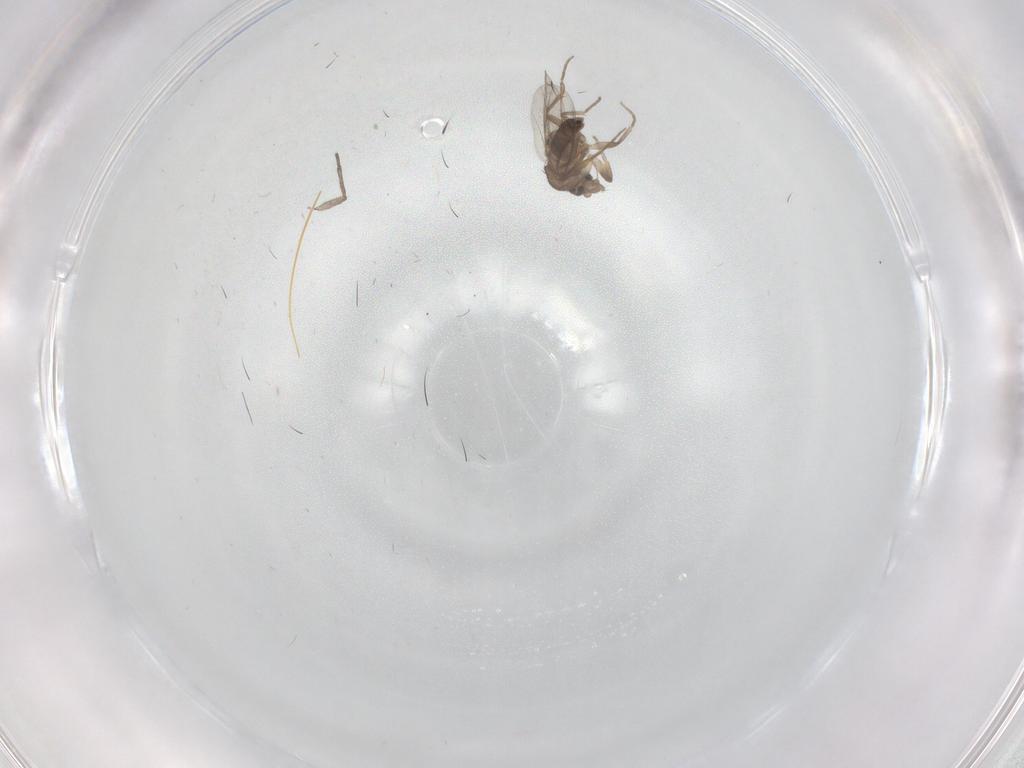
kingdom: Animalia
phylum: Arthropoda
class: Insecta
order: Diptera
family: Sciaridae
